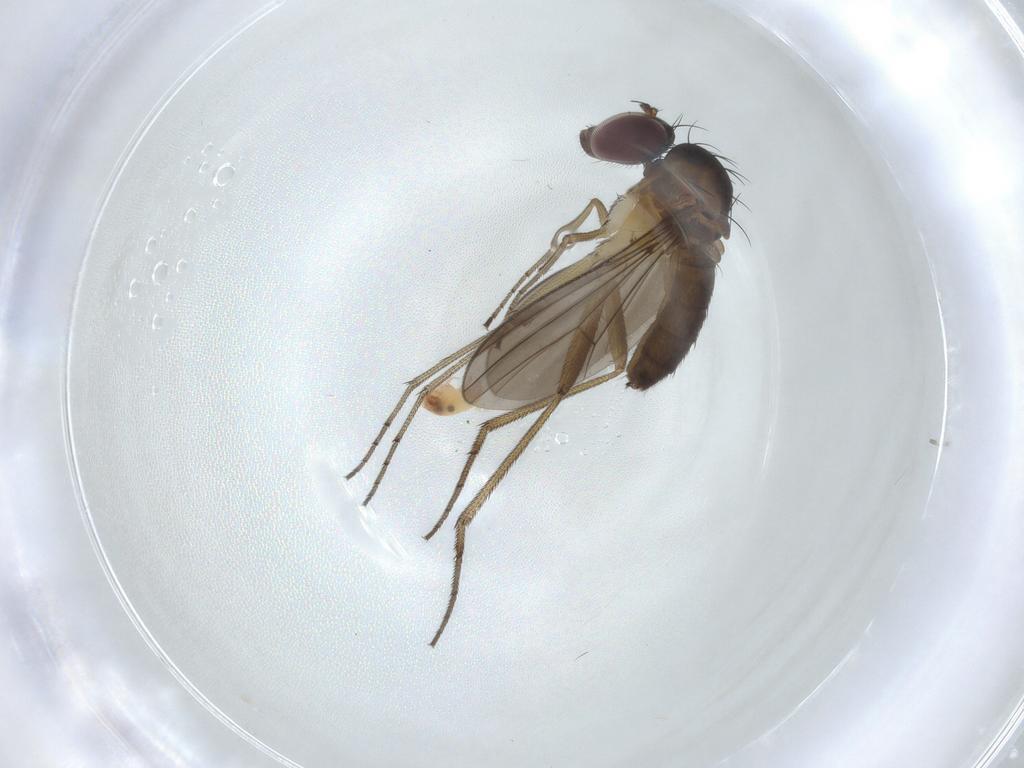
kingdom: Animalia
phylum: Arthropoda
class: Insecta
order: Diptera
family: Dolichopodidae
